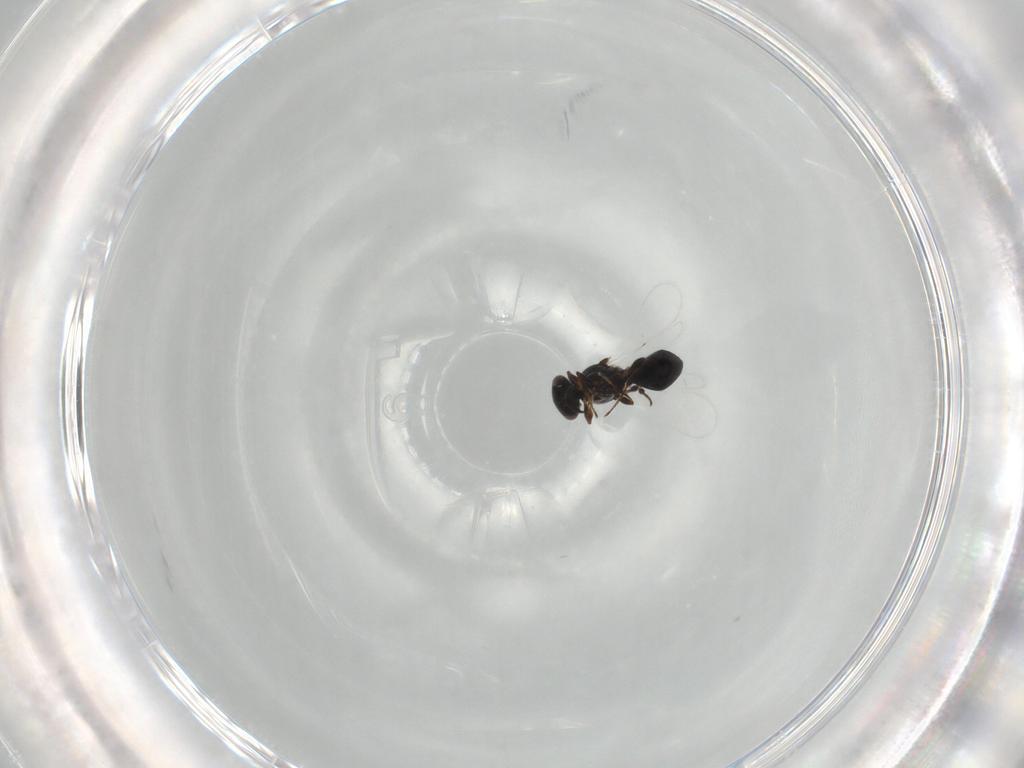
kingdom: Animalia
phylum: Arthropoda
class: Insecta
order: Hymenoptera
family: Platygastridae
